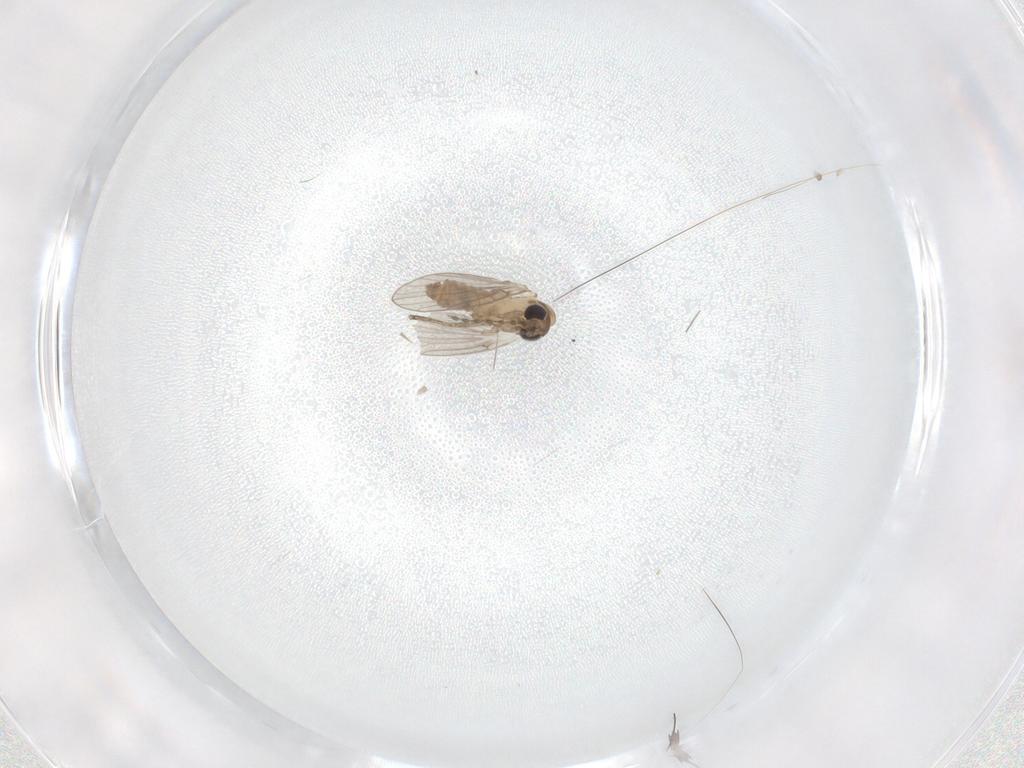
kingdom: Animalia
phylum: Arthropoda
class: Insecta
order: Diptera
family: Psychodidae
